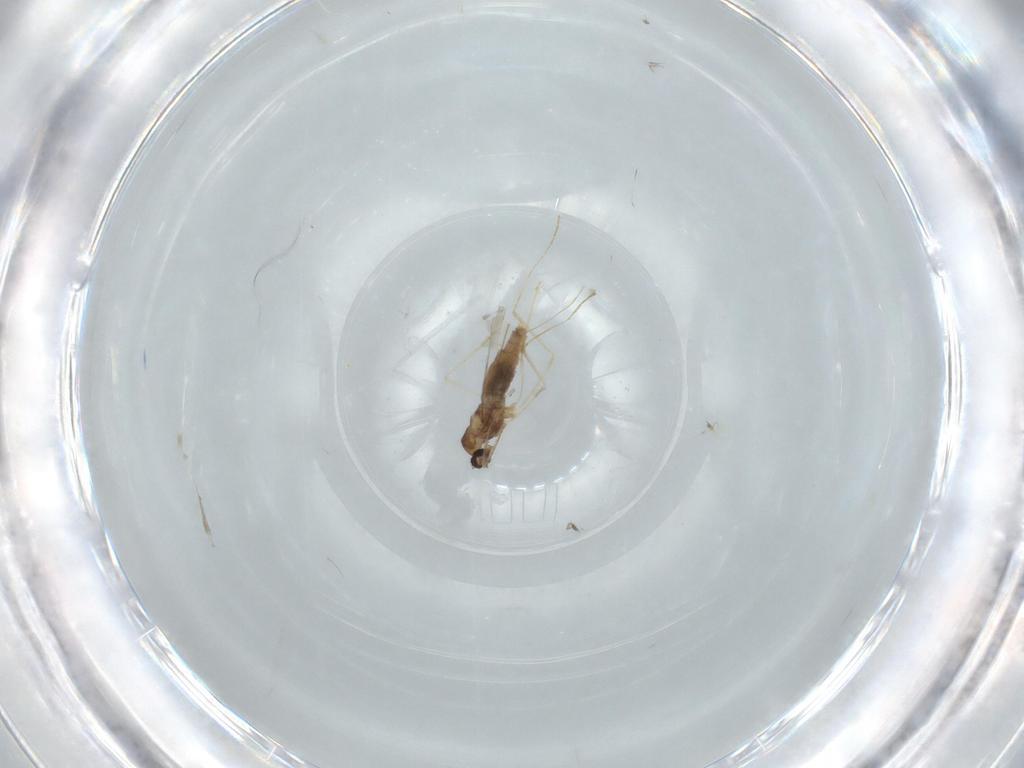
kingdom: Animalia
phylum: Arthropoda
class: Insecta
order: Diptera
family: Cecidomyiidae
